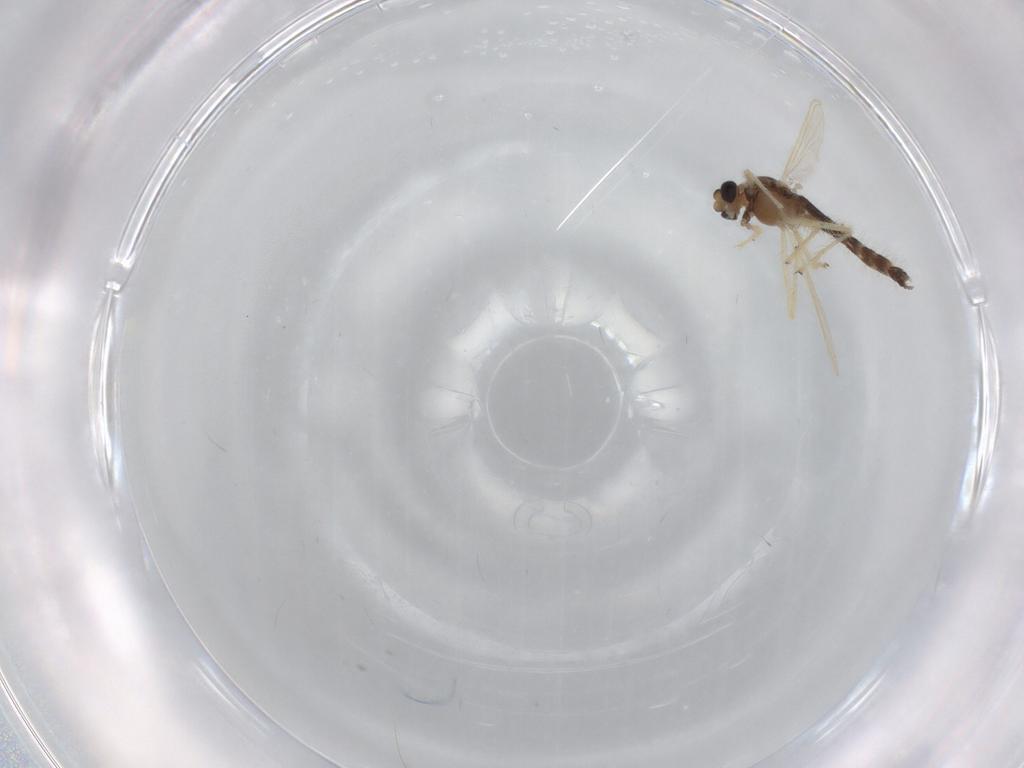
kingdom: Animalia
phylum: Arthropoda
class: Insecta
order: Diptera
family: Chironomidae
